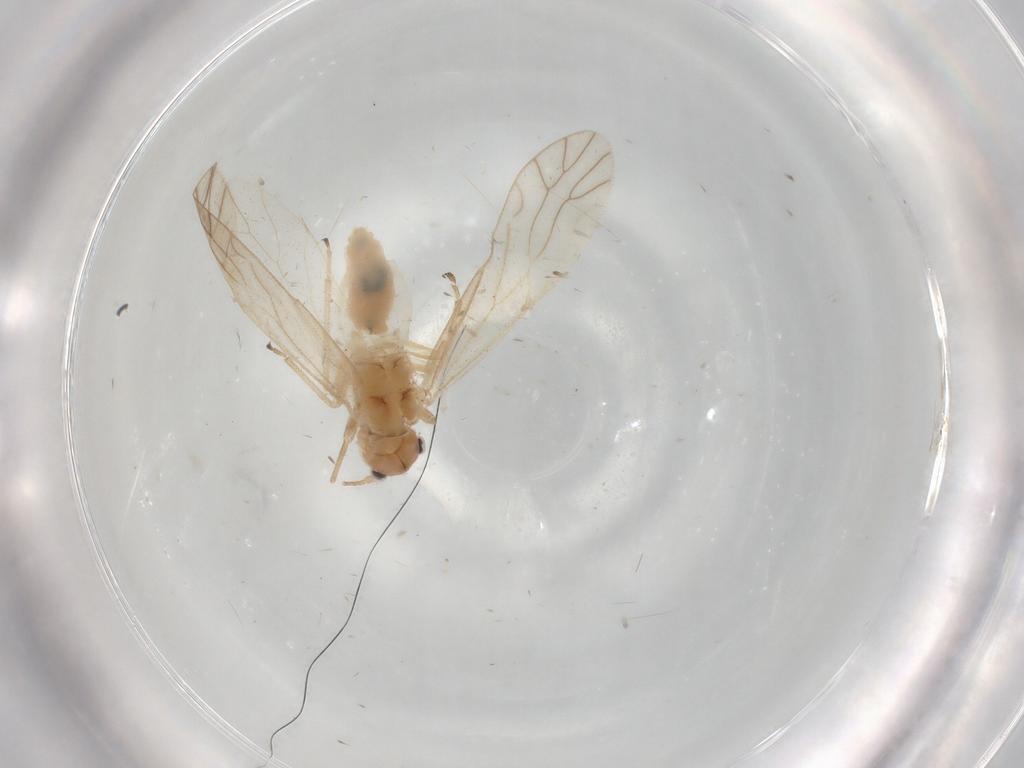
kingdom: Animalia
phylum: Arthropoda
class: Insecta
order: Psocodea
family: Caeciliusidae
